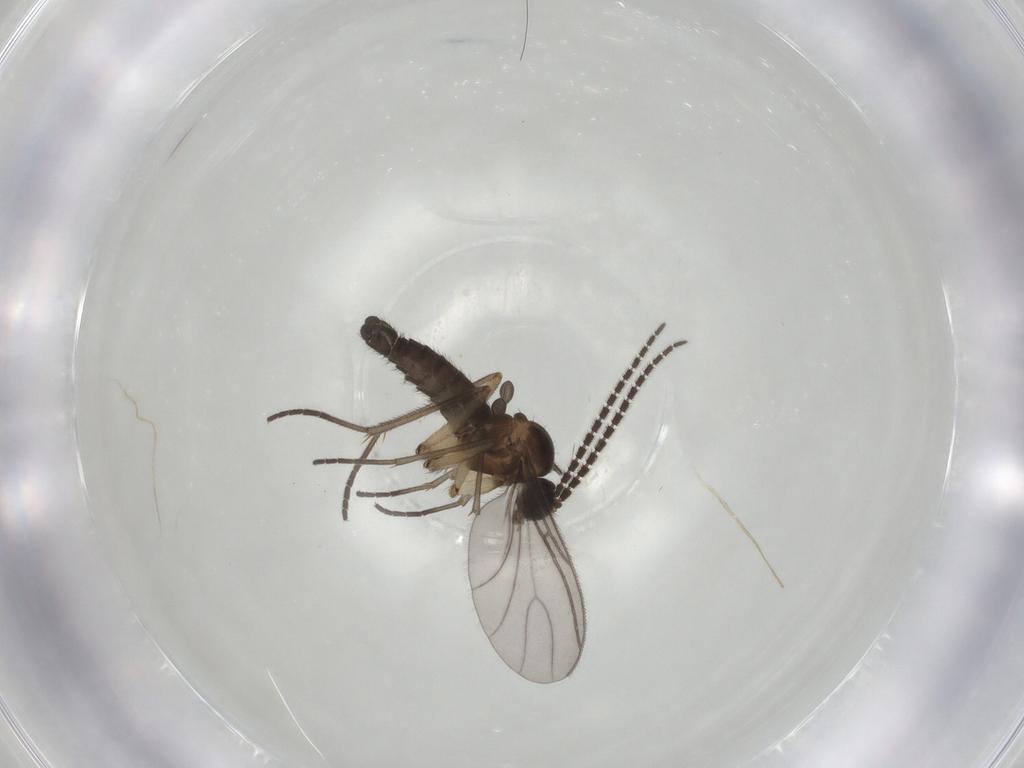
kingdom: Animalia
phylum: Arthropoda
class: Insecta
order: Diptera
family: Sciaridae
